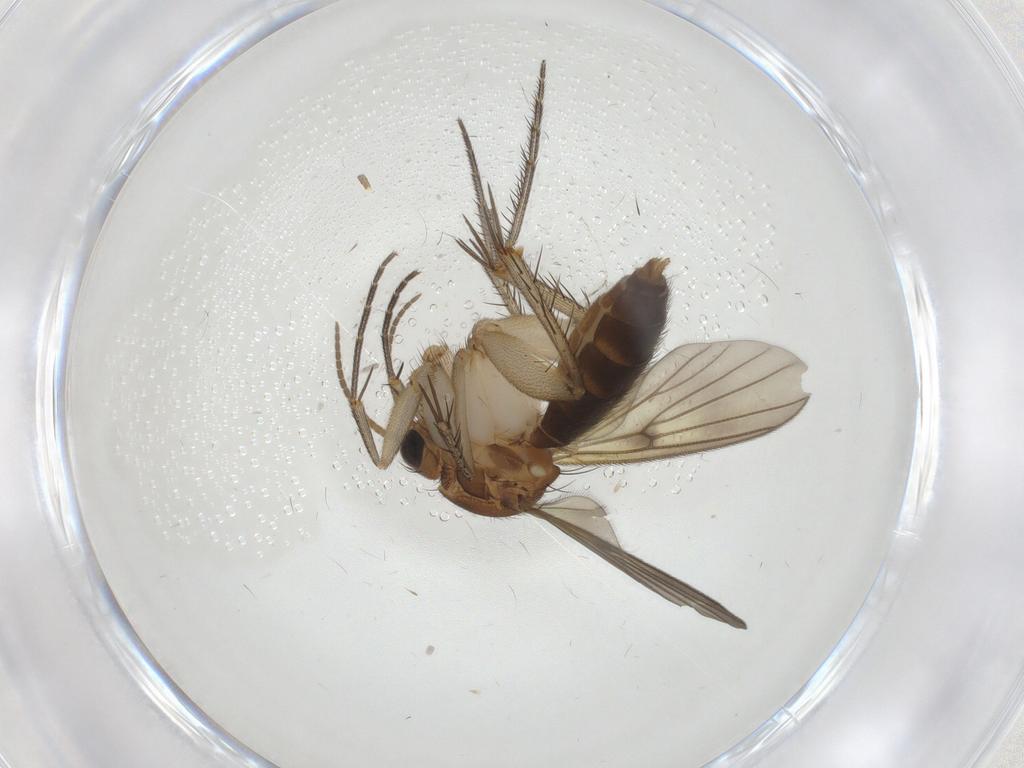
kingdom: Animalia
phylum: Arthropoda
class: Insecta
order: Diptera
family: Mycetophilidae
